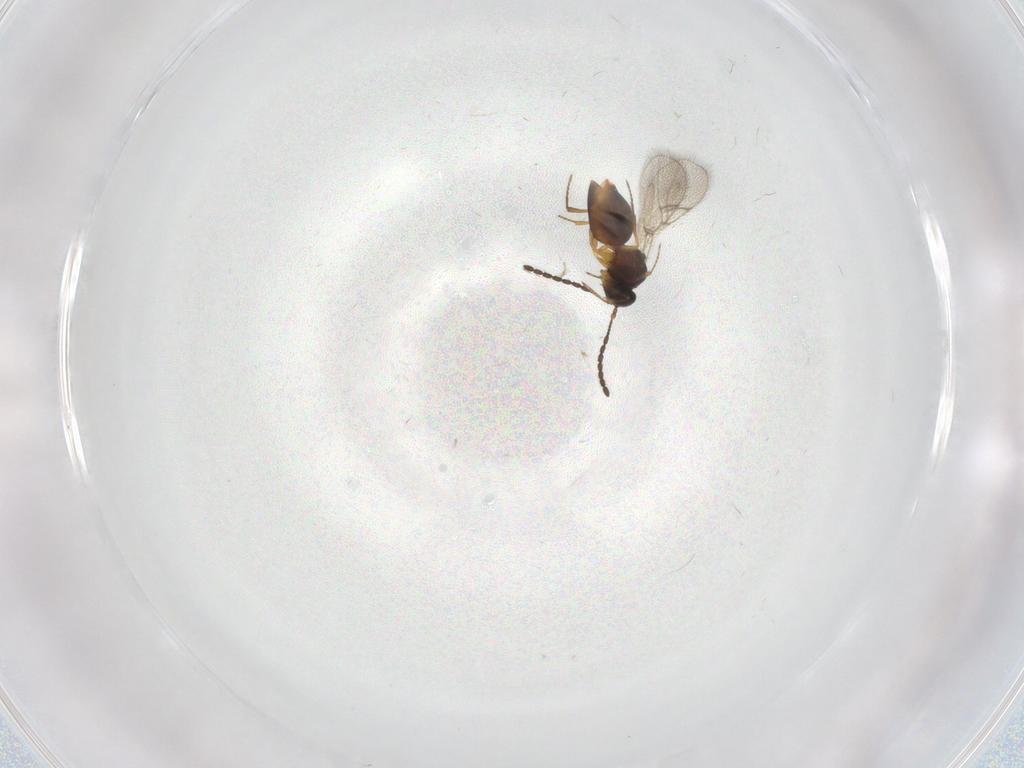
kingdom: Animalia
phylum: Arthropoda
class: Insecta
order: Hymenoptera
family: Figitidae
